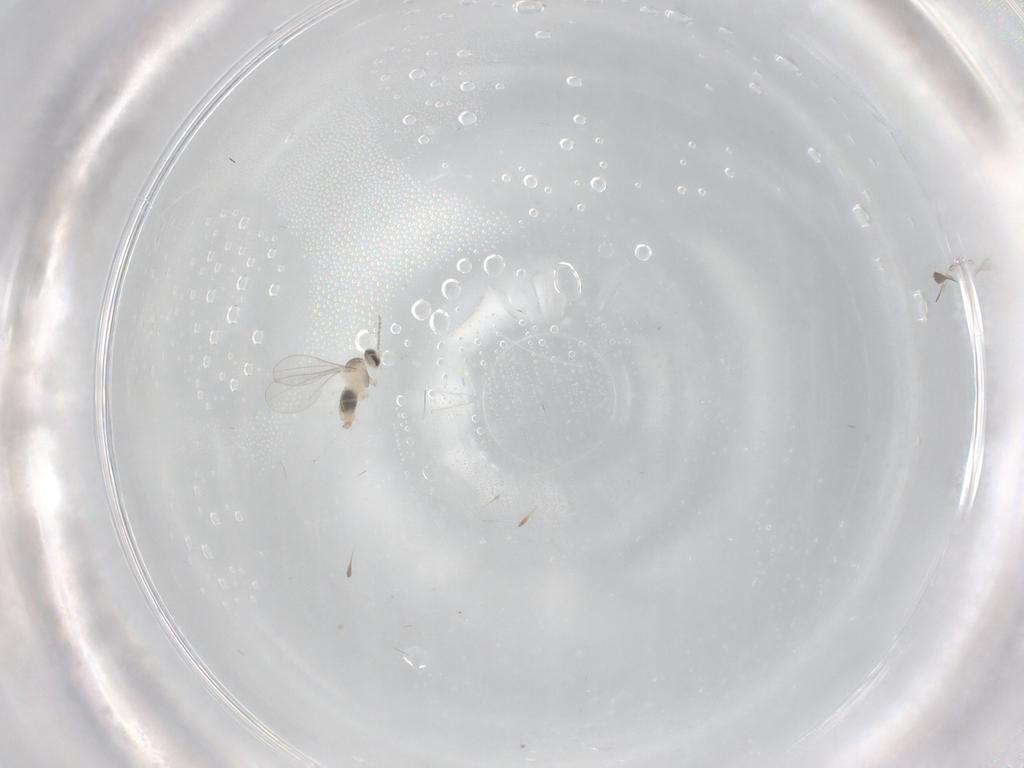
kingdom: Animalia
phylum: Arthropoda
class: Insecta
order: Diptera
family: Cecidomyiidae
